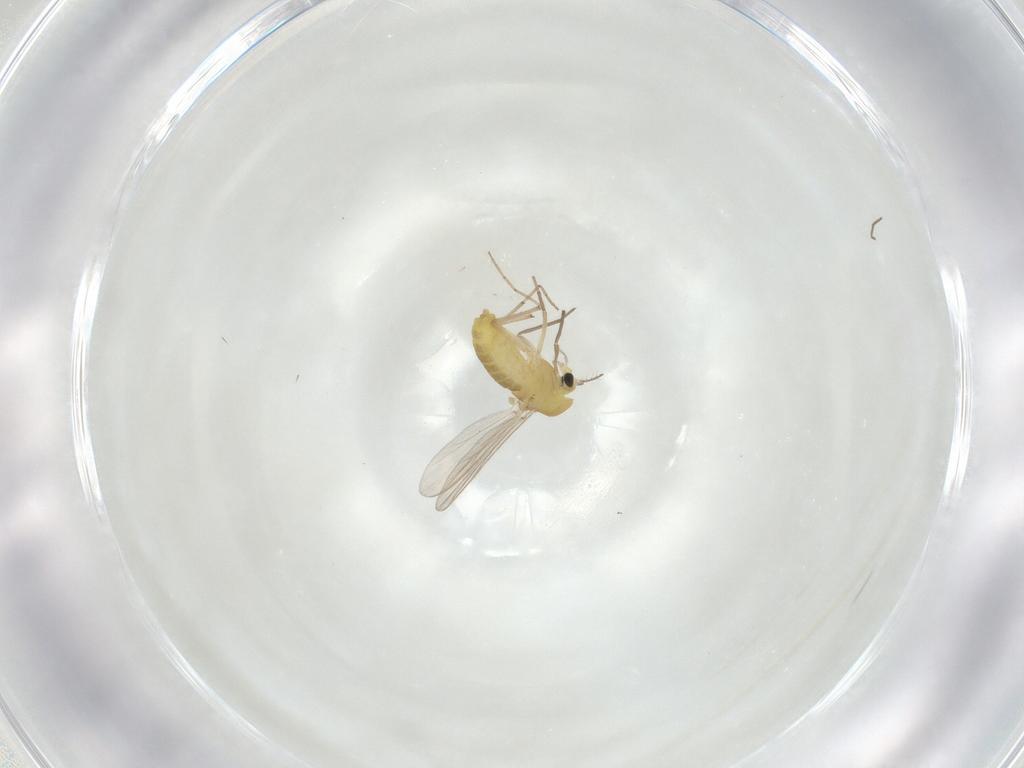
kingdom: Animalia
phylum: Arthropoda
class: Insecta
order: Diptera
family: Chironomidae
